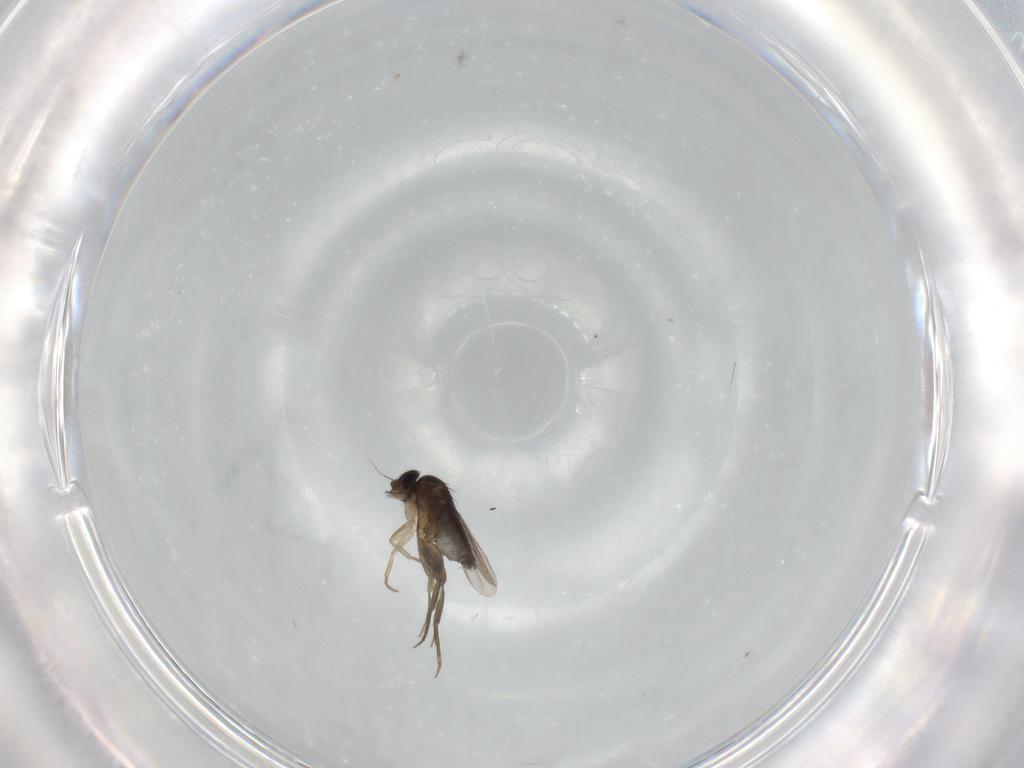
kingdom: Animalia
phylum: Arthropoda
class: Insecta
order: Diptera
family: Phoridae
